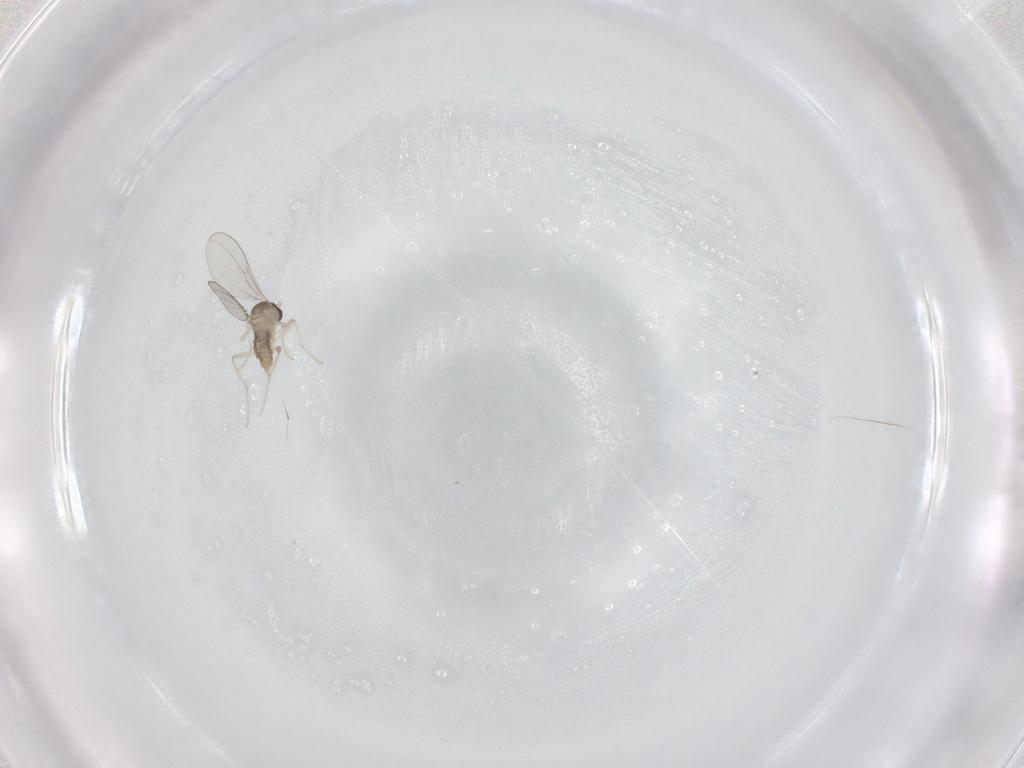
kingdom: Animalia
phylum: Arthropoda
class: Insecta
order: Diptera
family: Cecidomyiidae
